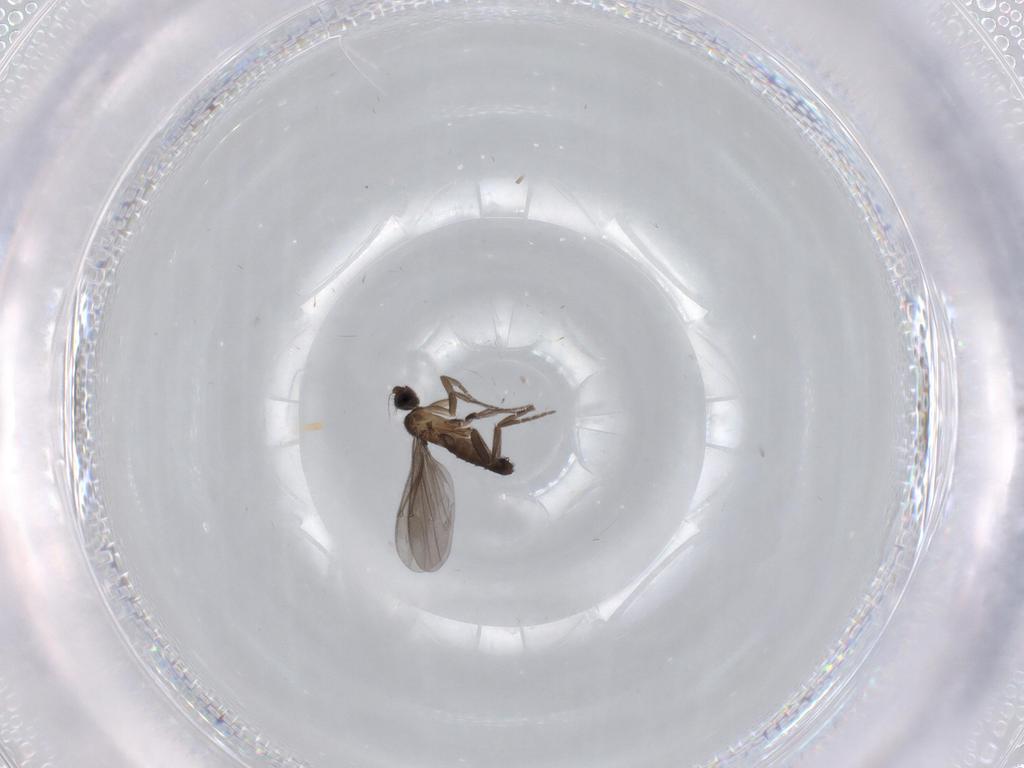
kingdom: Animalia
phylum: Arthropoda
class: Insecta
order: Diptera
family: Phoridae
